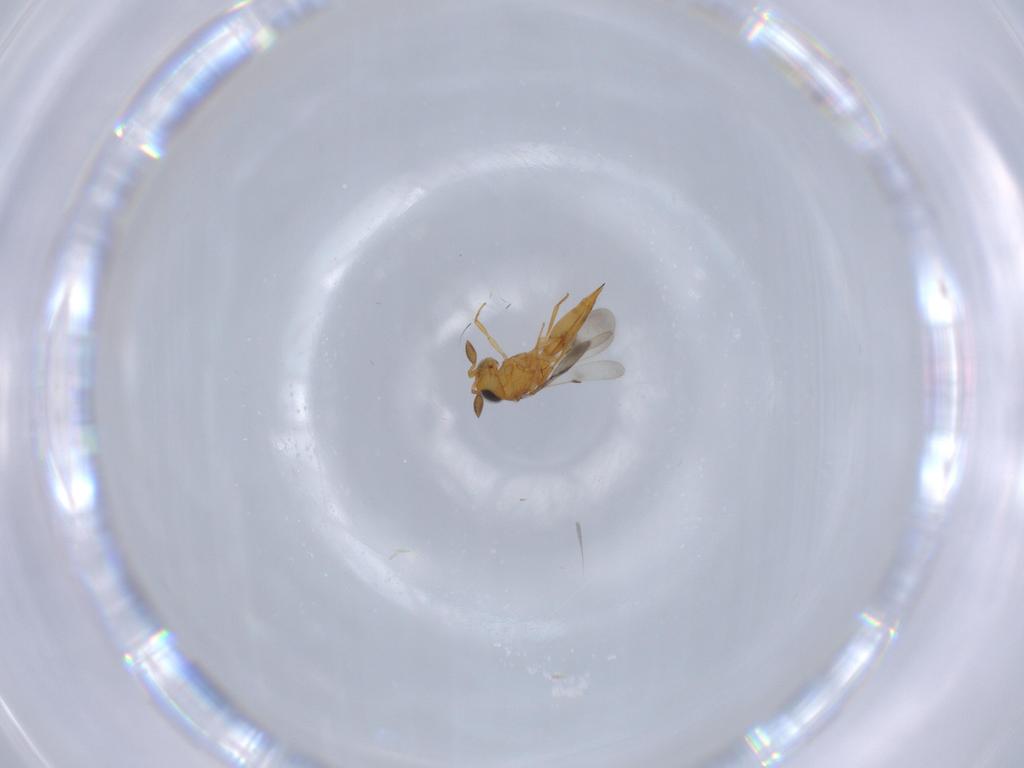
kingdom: Animalia
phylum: Arthropoda
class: Insecta
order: Hymenoptera
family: Scelionidae
